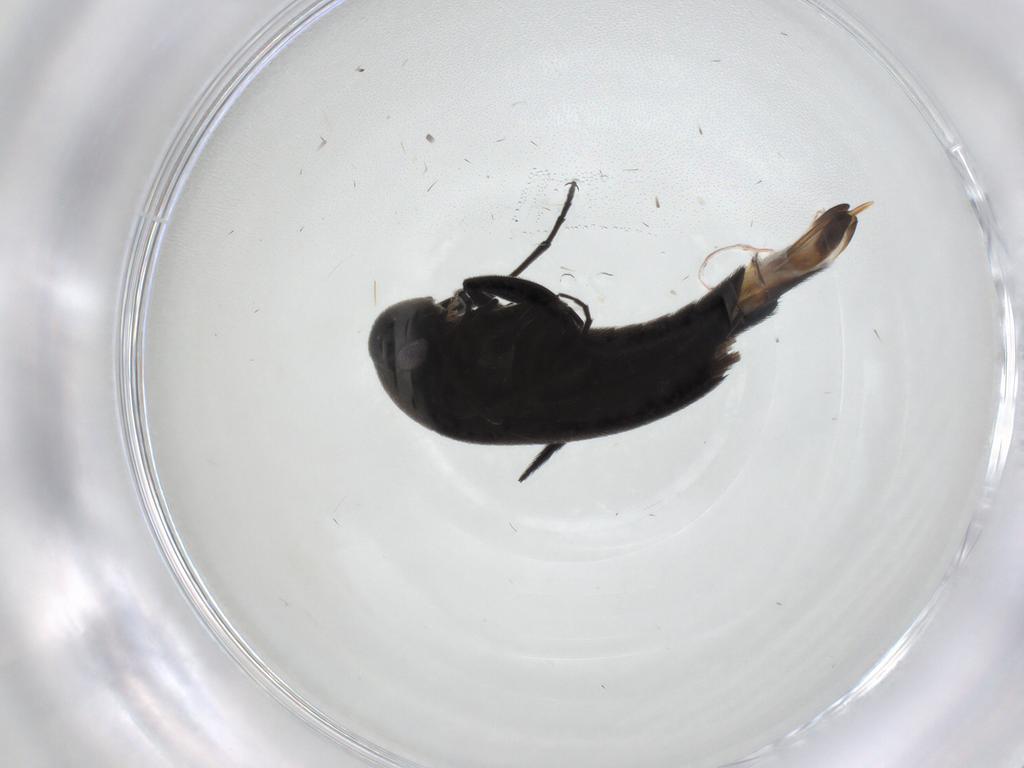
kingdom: Animalia
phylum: Arthropoda
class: Insecta
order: Coleoptera
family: Mordellidae
